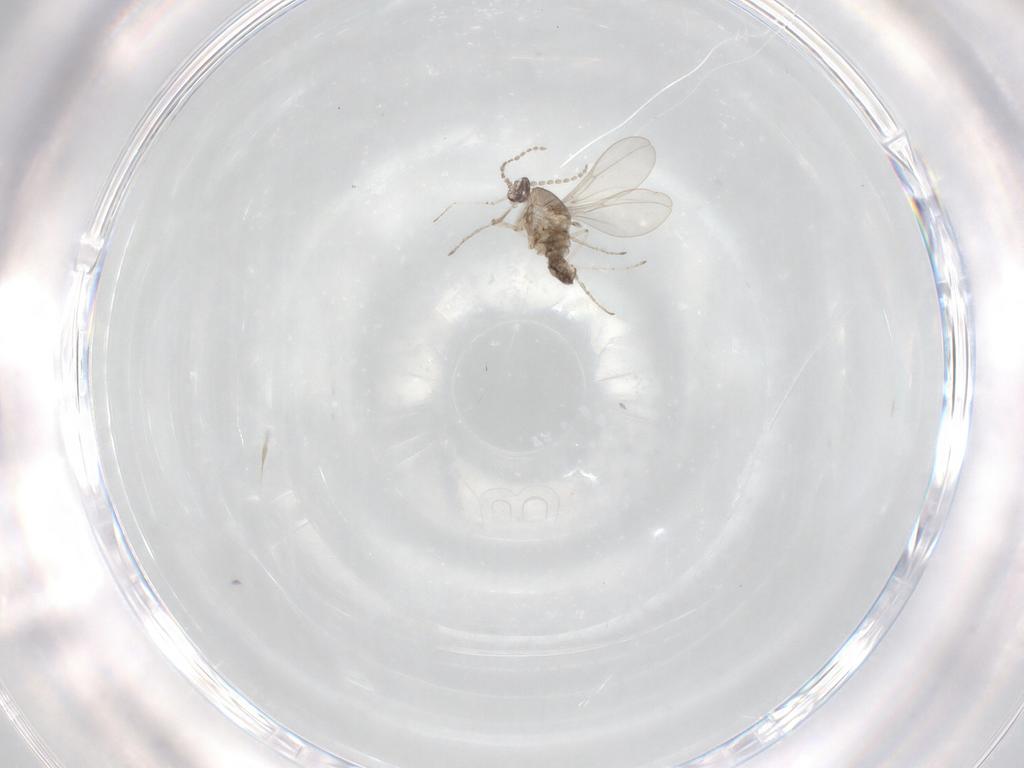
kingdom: Animalia
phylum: Arthropoda
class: Insecta
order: Diptera
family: Cecidomyiidae
